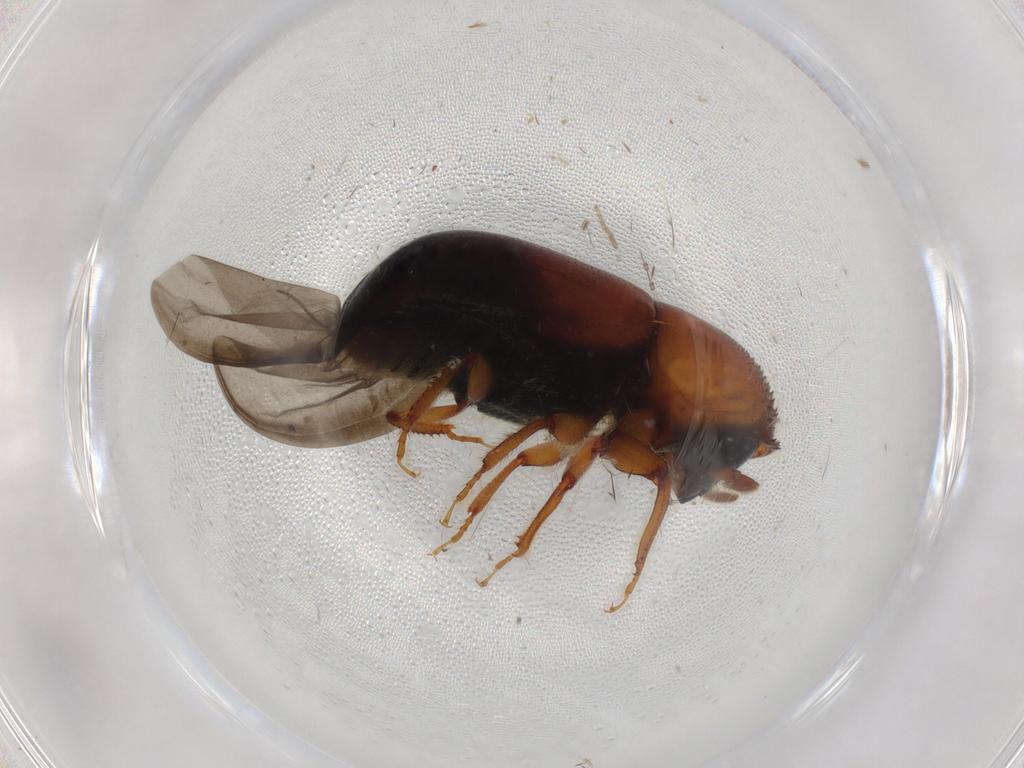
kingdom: Animalia
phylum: Arthropoda
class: Insecta
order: Coleoptera
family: Curculionidae
